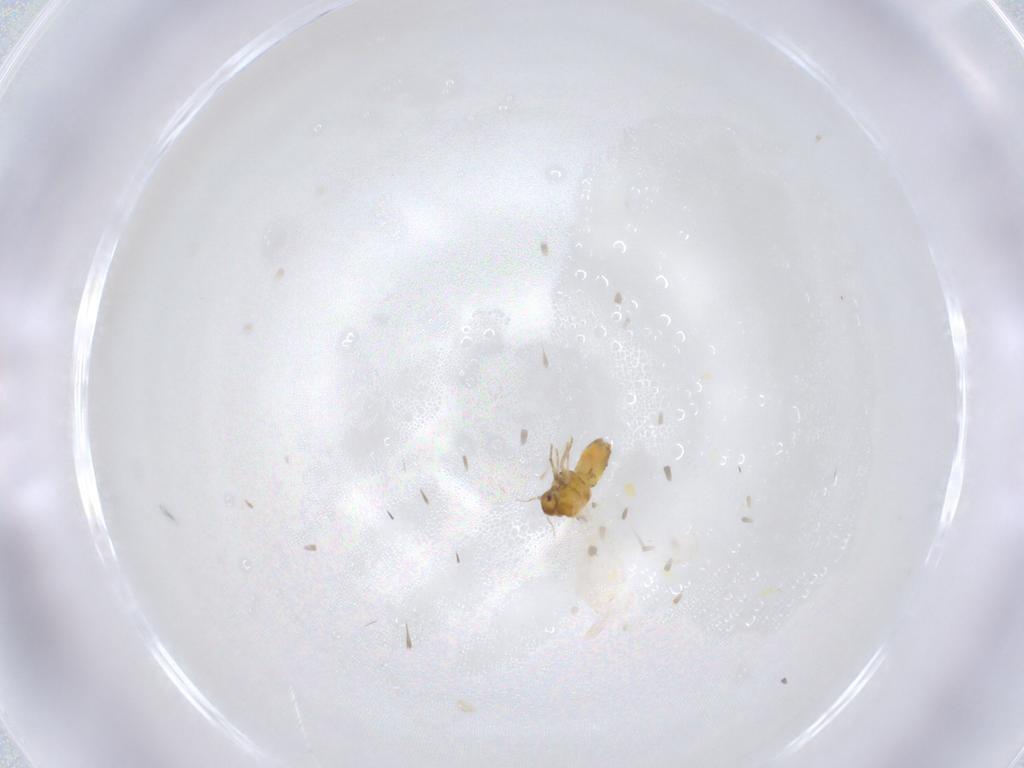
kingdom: Animalia
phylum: Arthropoda
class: Insecta
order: Hemiptera
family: Aleyrodidae
